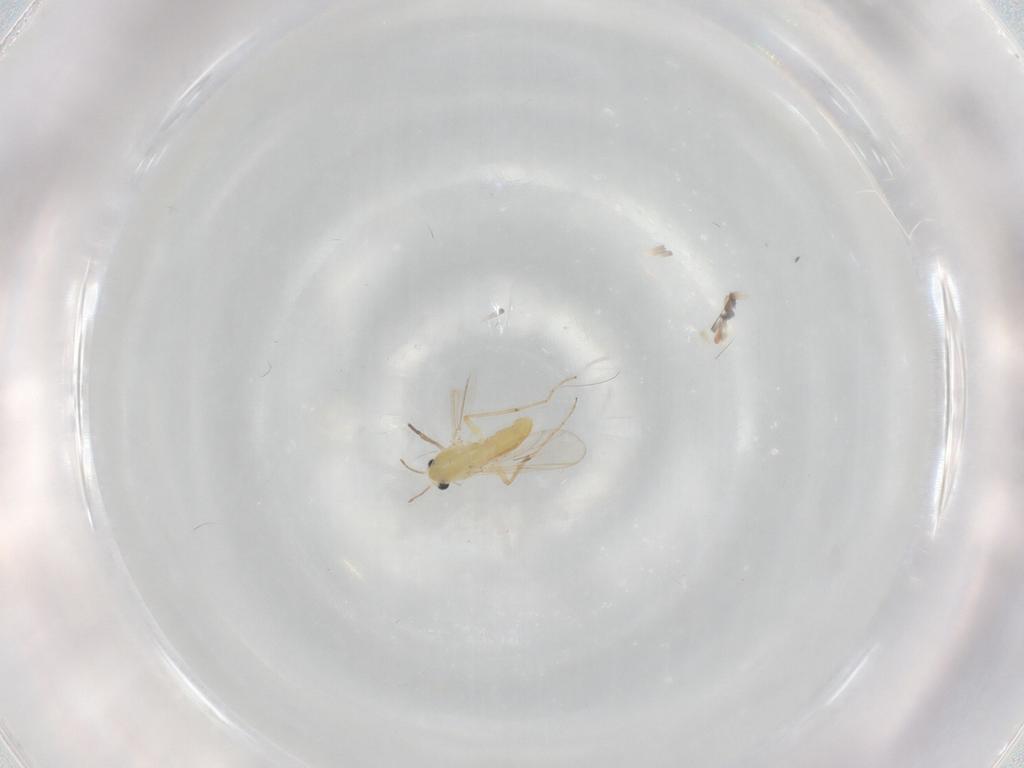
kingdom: Animalia
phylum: Arthropoda
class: Insecta
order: Diptera
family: Chironomidae
